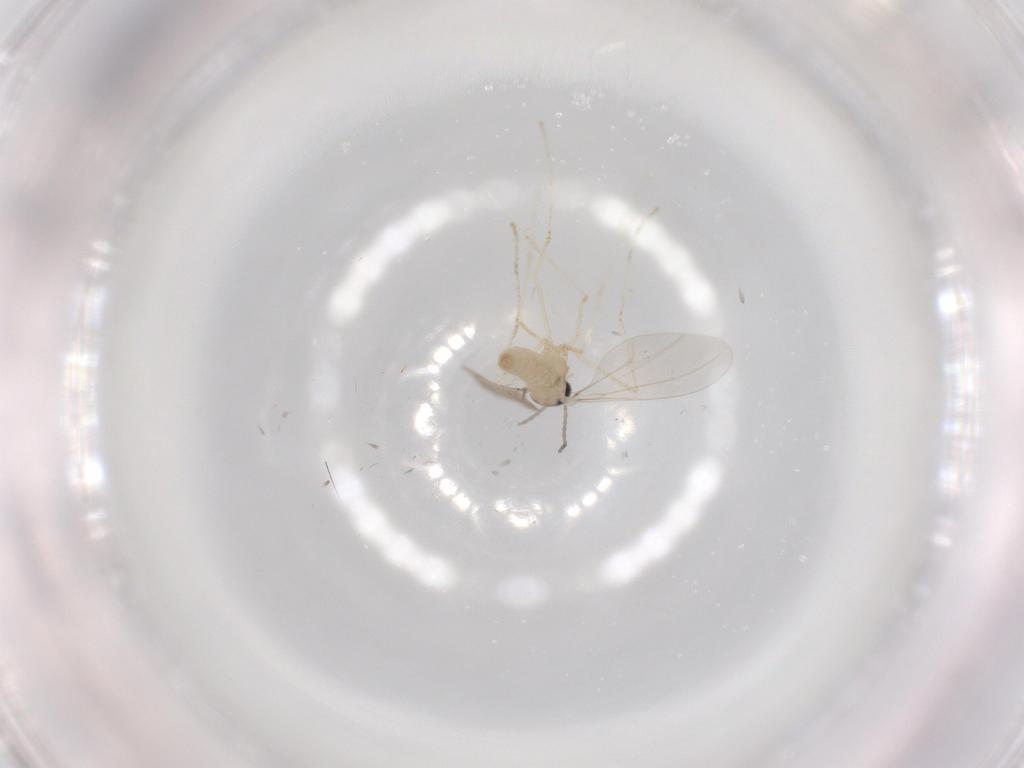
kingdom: Animalia
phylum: Arthropoda
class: Insecta
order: Diptera
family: Cecidomyiidae
